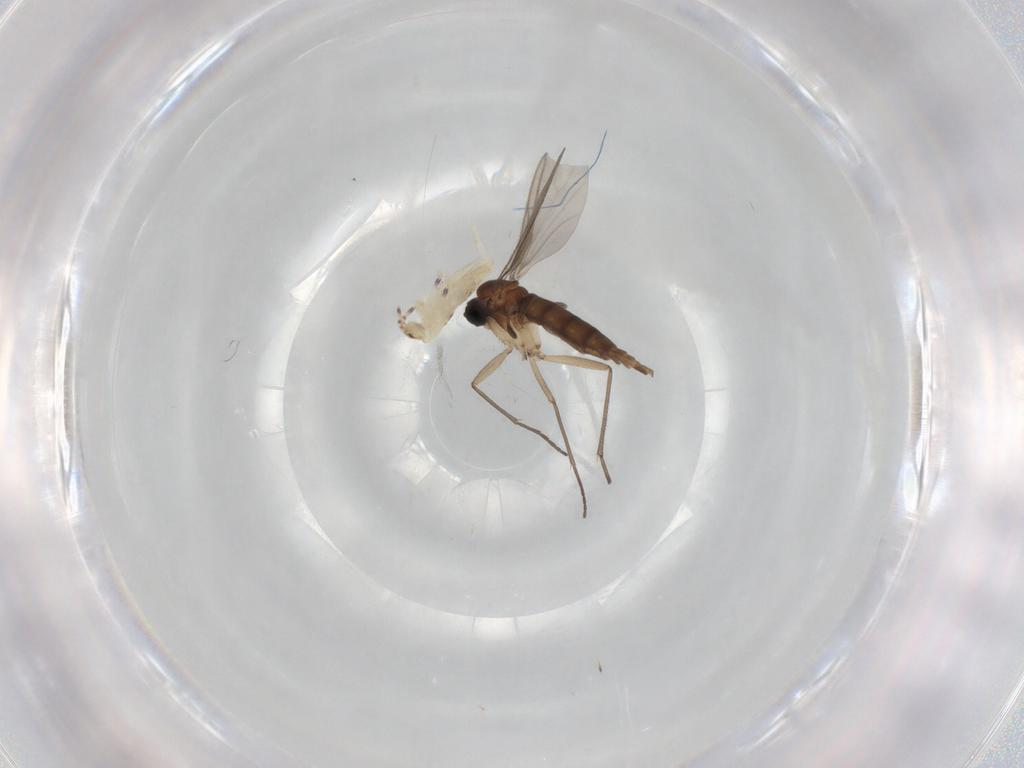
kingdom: Animalia
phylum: Arthropoda
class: Insecta
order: Diptera
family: Sciaridae
